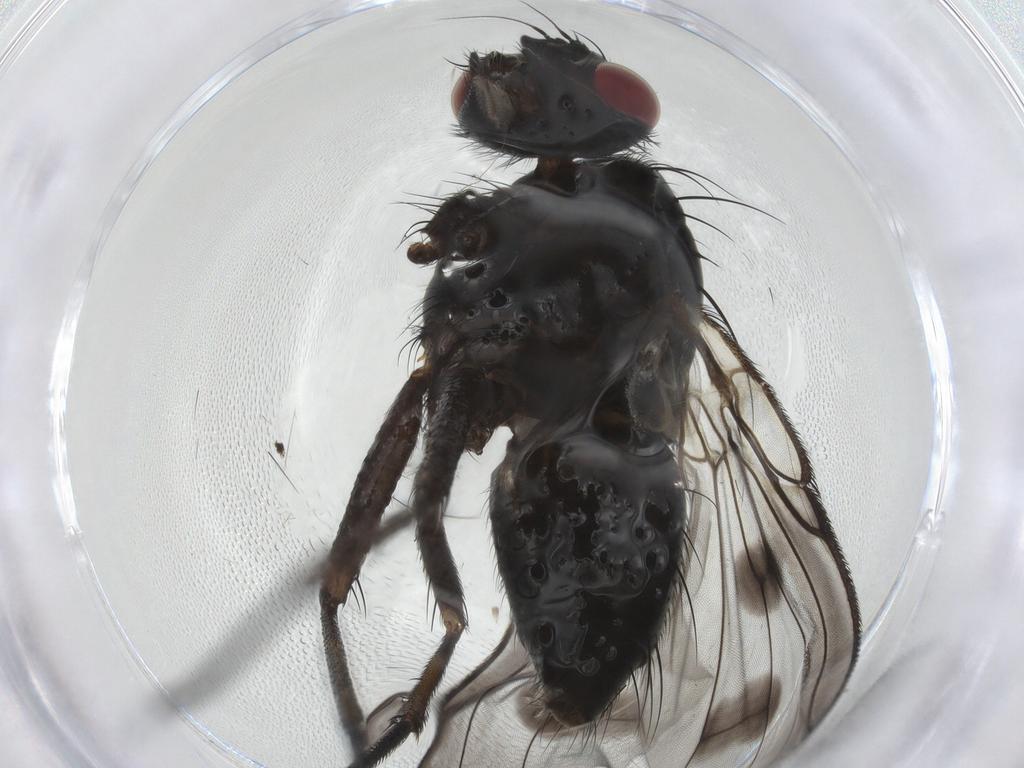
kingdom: Animalia
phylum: Arthropoda
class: Insecta
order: Diptera
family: Muscidae
